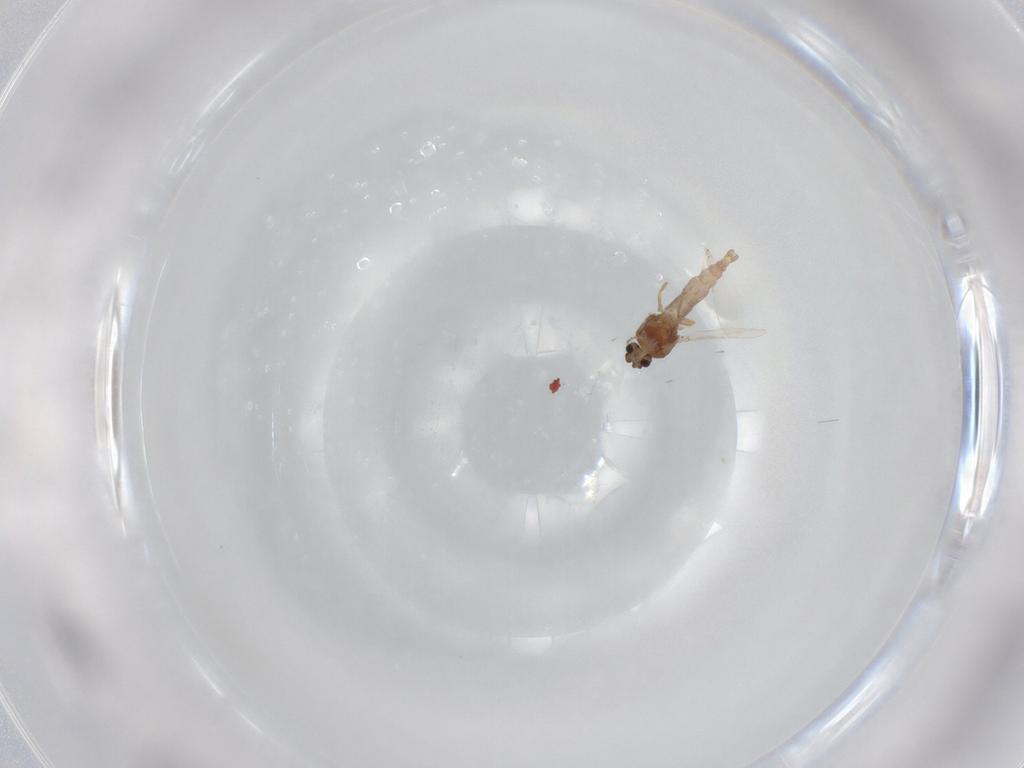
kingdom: Animalia
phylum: Arthropoda
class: Insecta
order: Diptera
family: Ceratopogonidae
